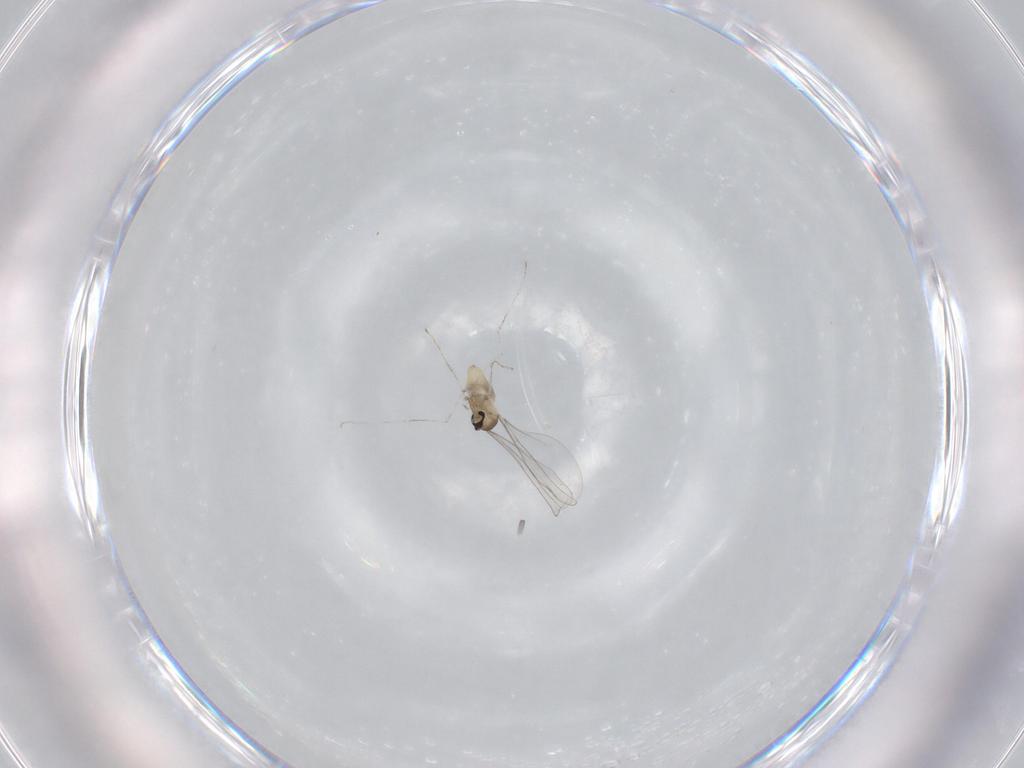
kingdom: Animalia
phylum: Arthropoda
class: Insecta
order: Diptera
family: Cecidomyiidae
